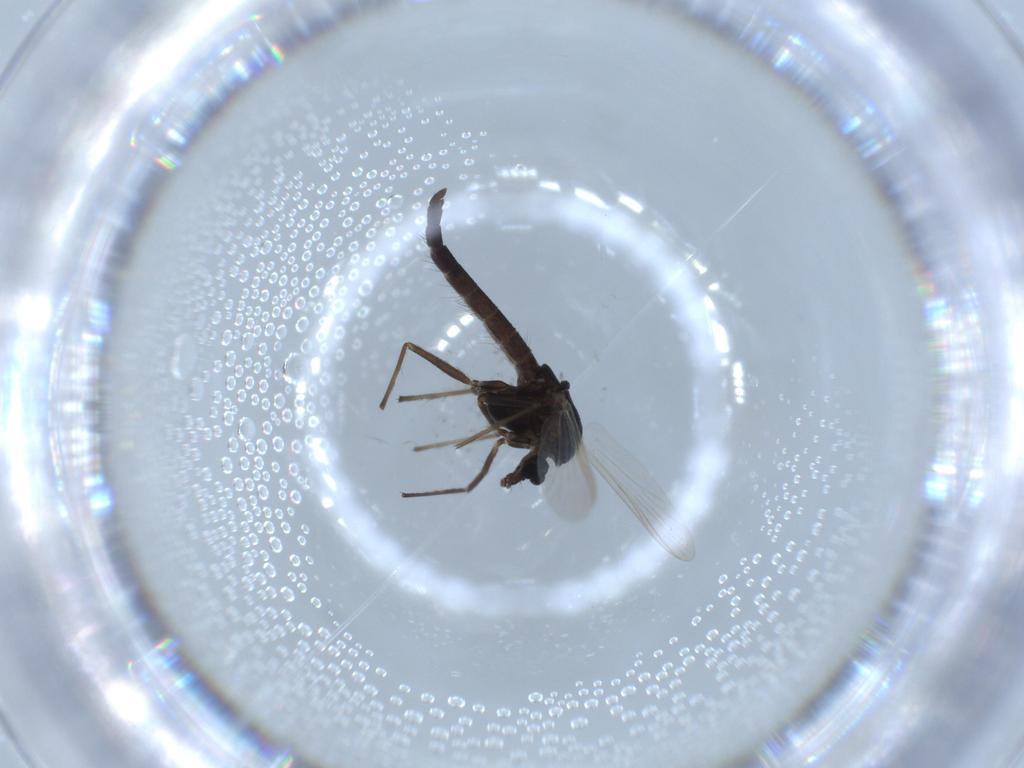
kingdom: Animalia
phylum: Arthropoda
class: Insecta
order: Diptera
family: Chironomidae
